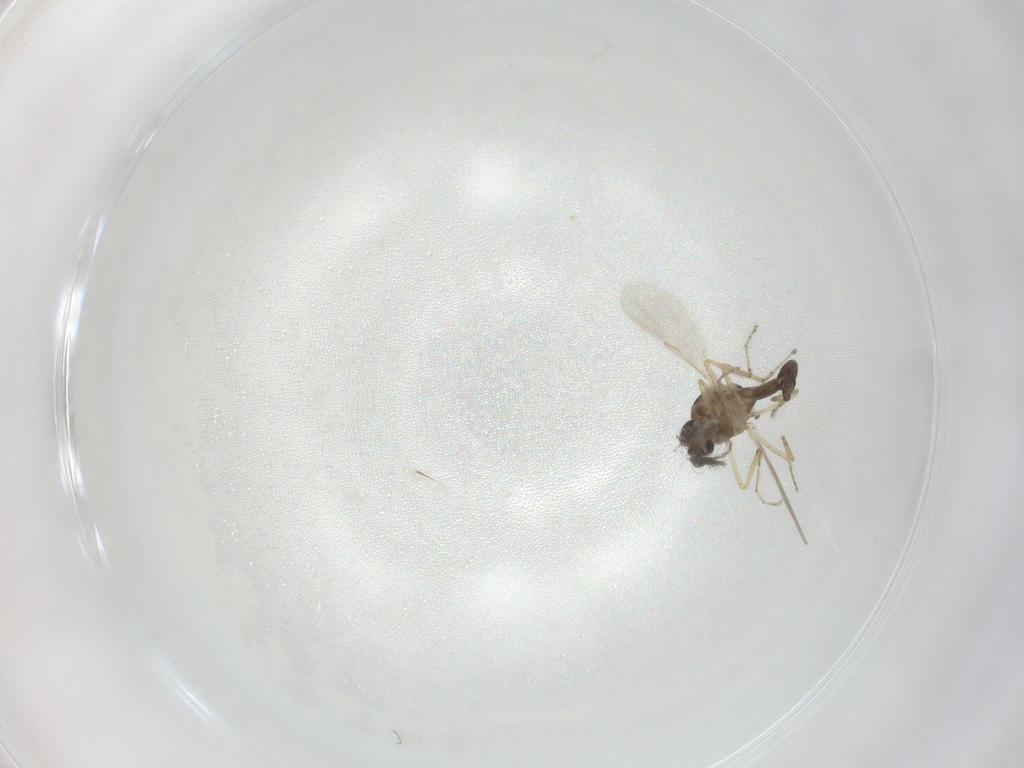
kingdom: Animalia
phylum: Arthropoda
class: Insecta
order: Diptera
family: Ceratopogonidae
